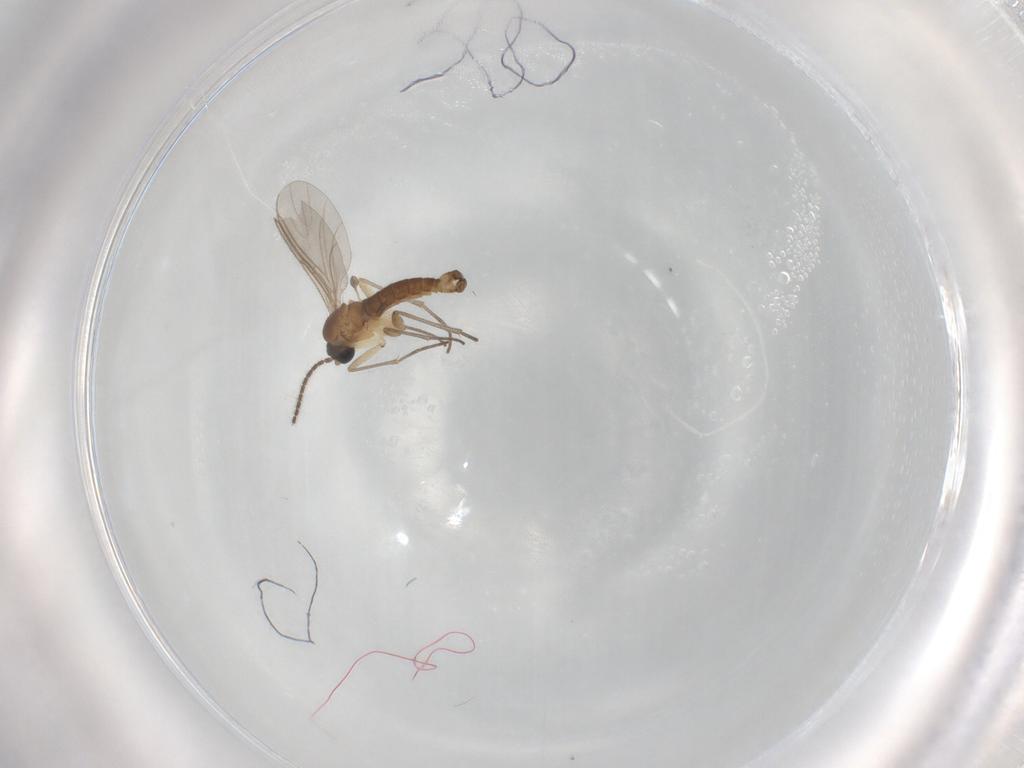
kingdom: Animalia
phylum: Arthropoda
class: Insecta
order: Diptera
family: Sciaridae
